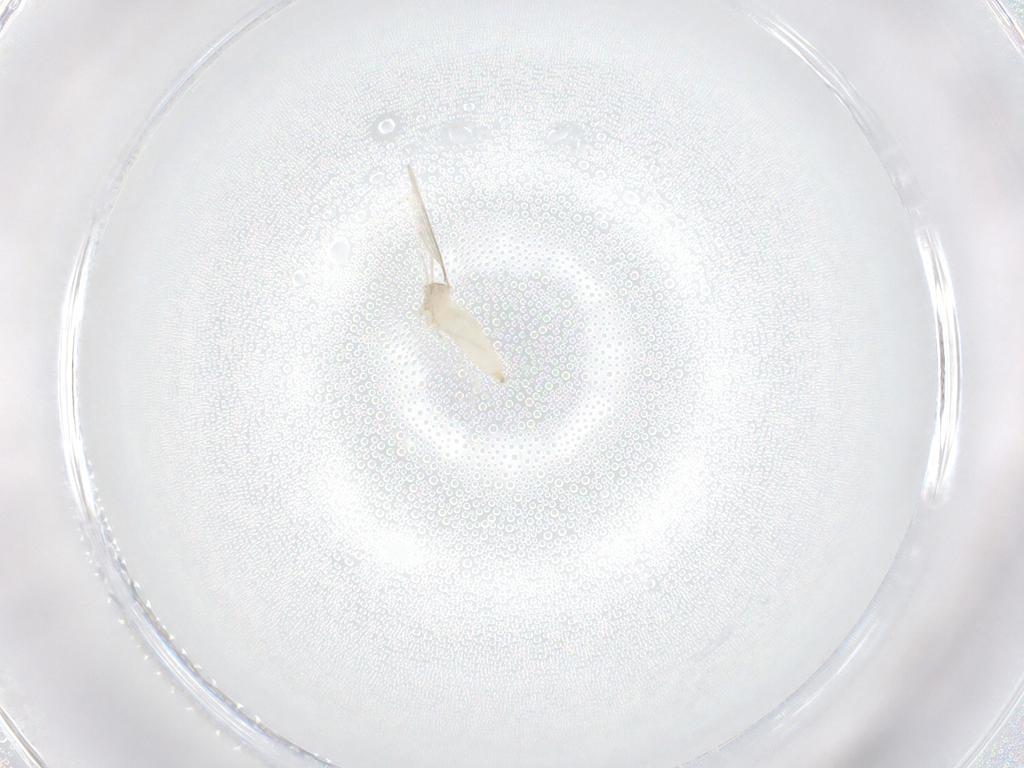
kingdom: Animalia
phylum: Arthropoda
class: Insecta
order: Diptera
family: Cecidomyiidae
